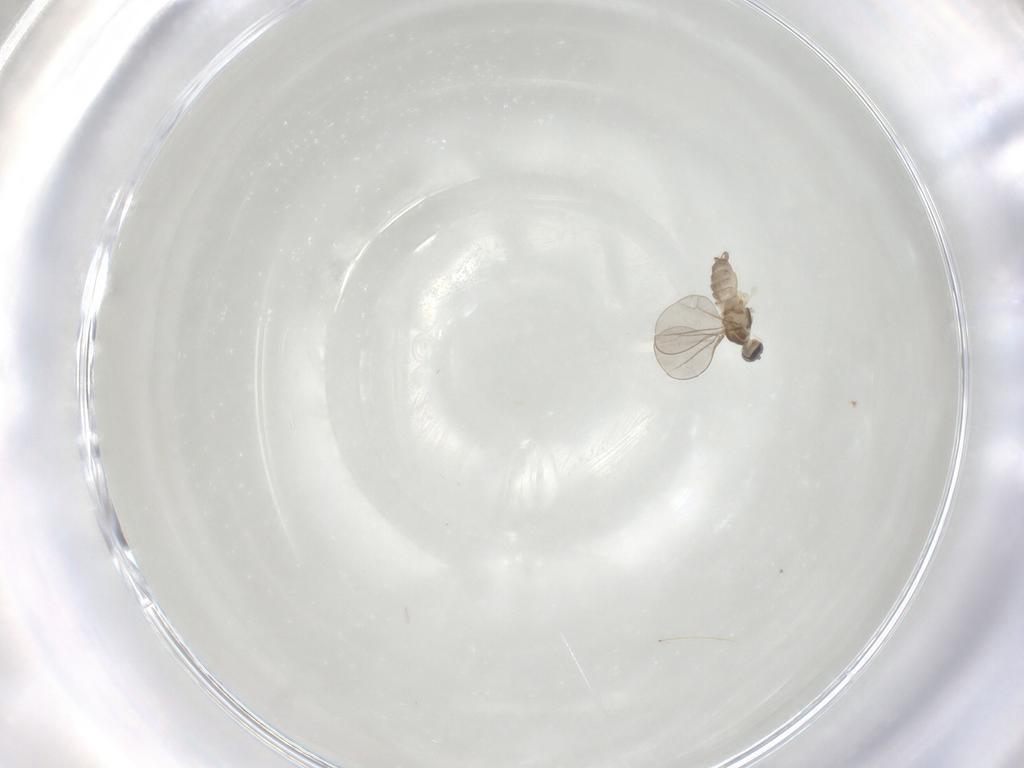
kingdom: Animalia
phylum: Arthropoda
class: Insecta
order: Diptera
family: Cecidomyiidae
